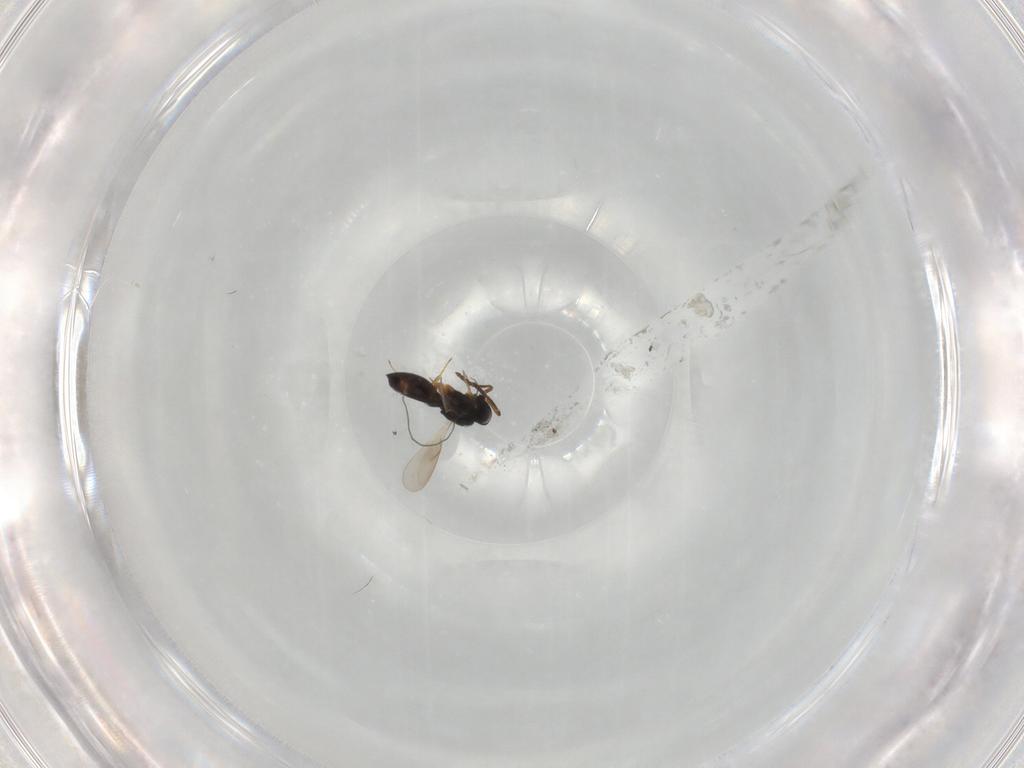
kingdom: Animalia
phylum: Arthropoda
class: Insecta
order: Hymenoptera
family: Scelionidae
